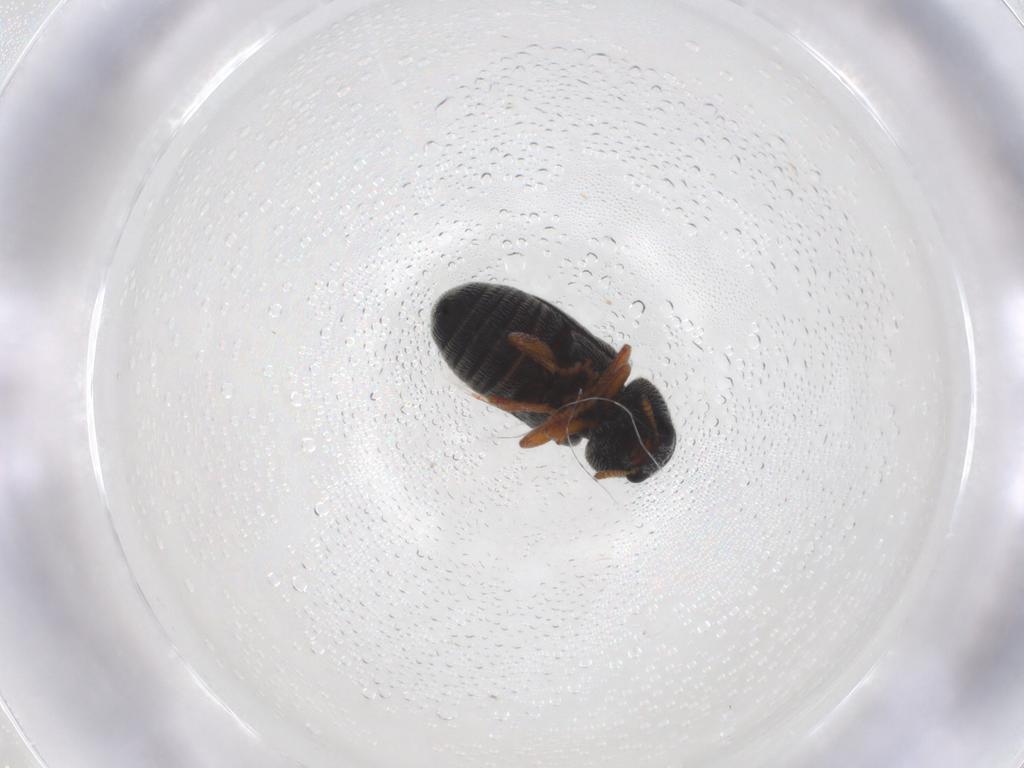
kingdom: Animalia
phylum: Arthropoda
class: Insecta
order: Coleoptera
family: Anthribidae
